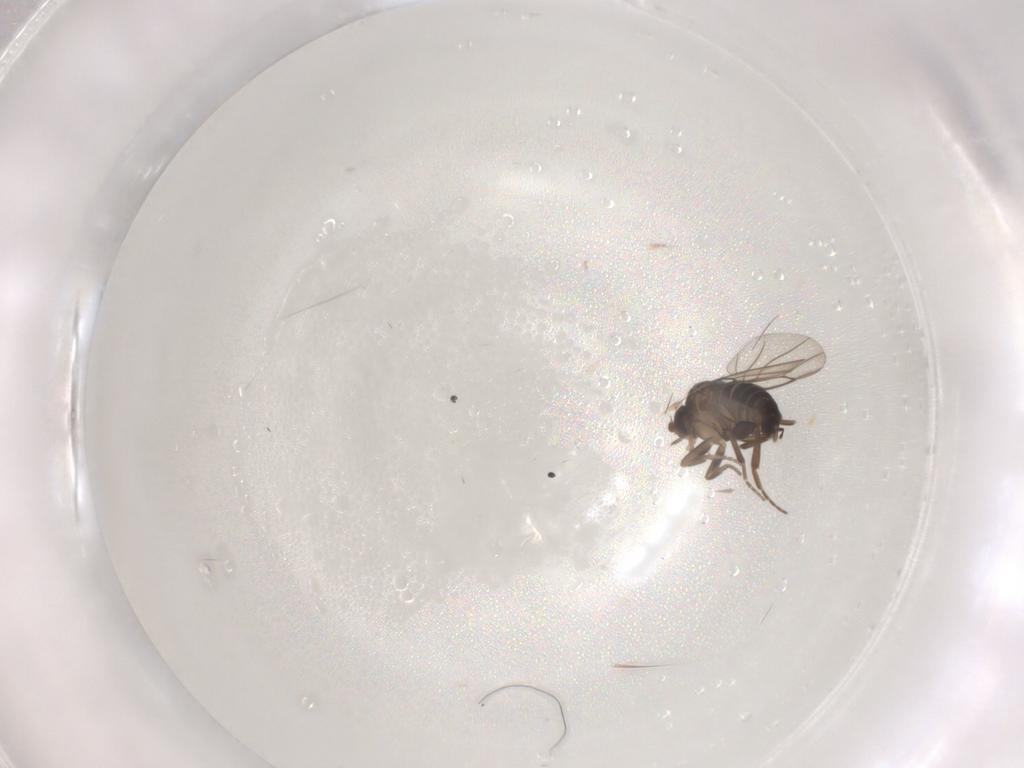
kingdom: Animalia
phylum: Arthropoda
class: Insecta
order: Diptera
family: Phoridae
